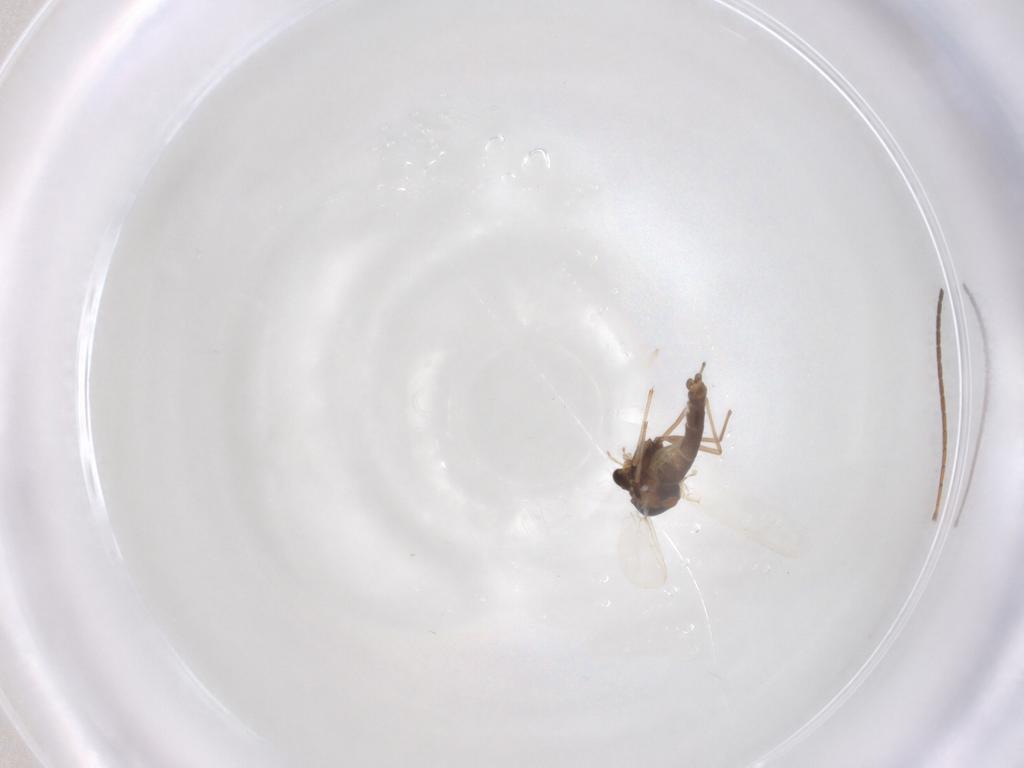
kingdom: Animalia
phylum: Arthropoda
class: Insecta
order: Diptera
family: Chironomidae
